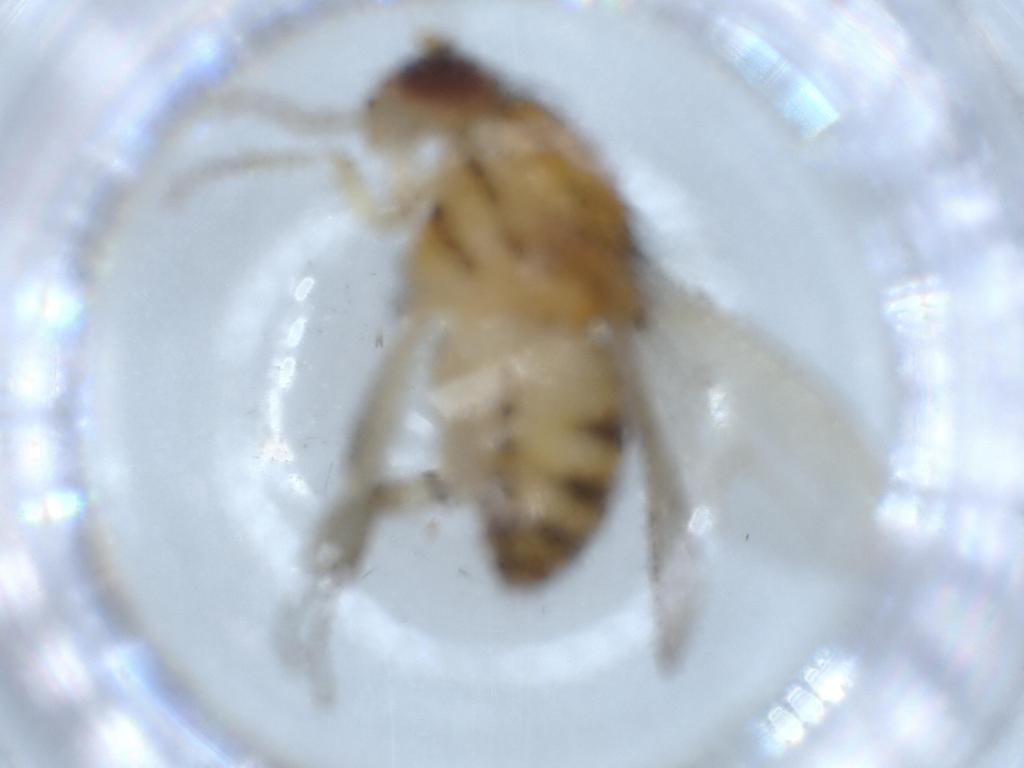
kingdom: Animalia
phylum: Arthropoda
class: Insecta
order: Diptera
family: Lauxaniidae
